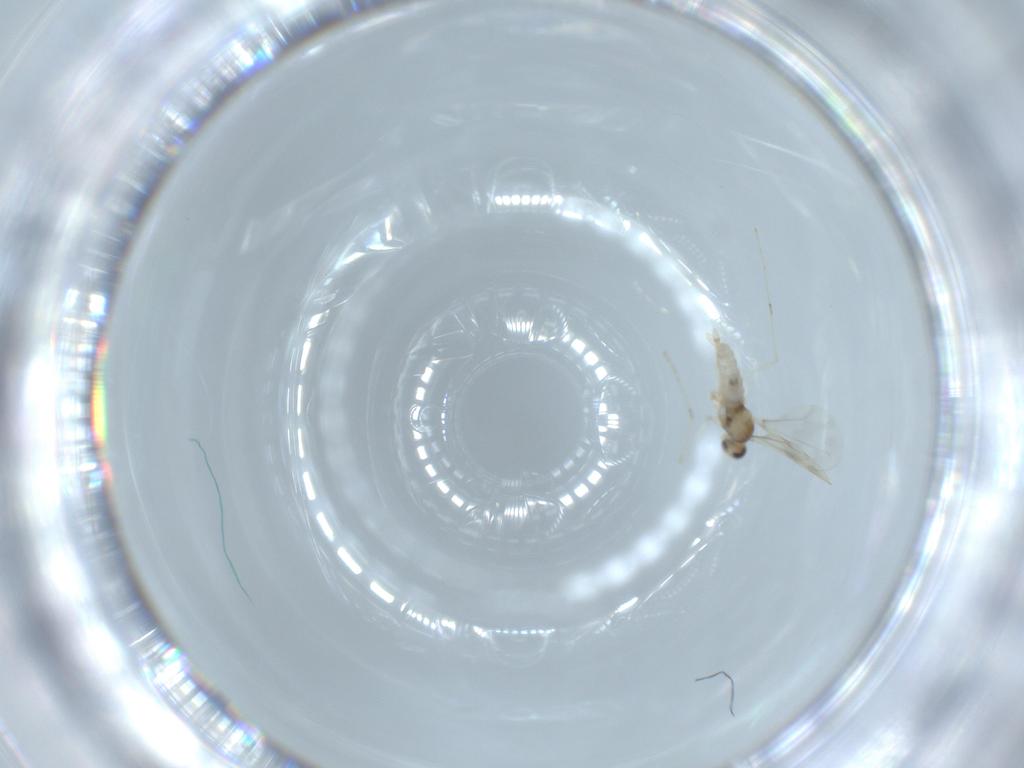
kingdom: Animalia
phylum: Arthropoda
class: Insecta
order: Diptera
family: Cecidomyiidae
